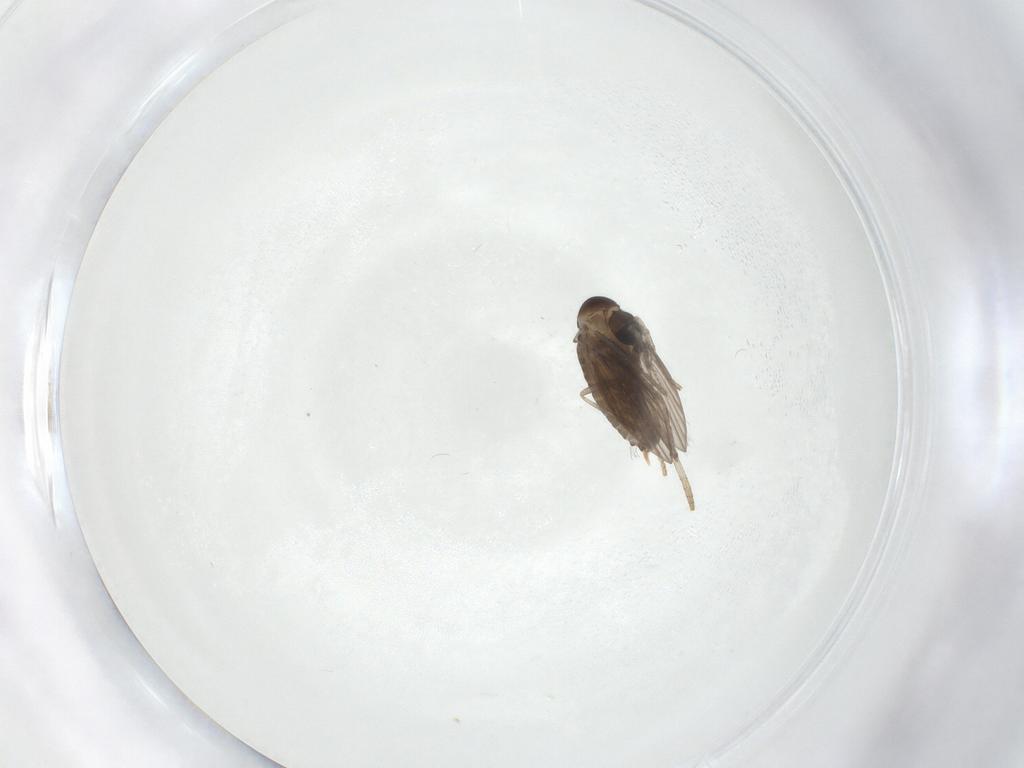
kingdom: Animalia
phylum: Arthropoda
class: Insecta
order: Diptera
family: Psychodidae
